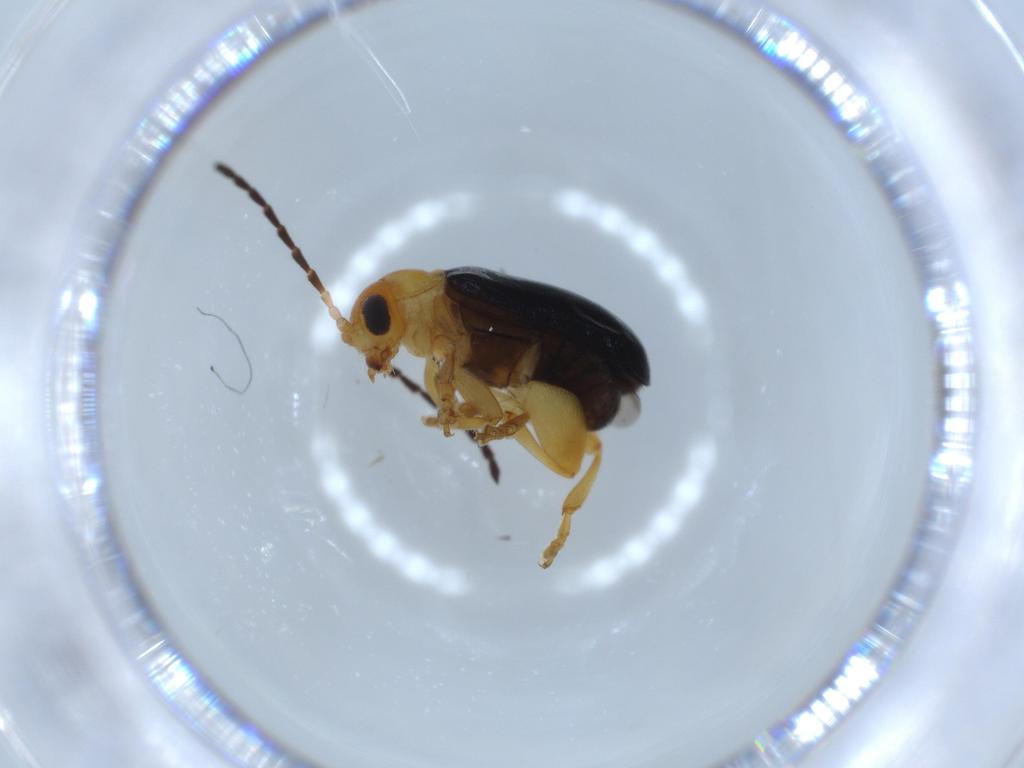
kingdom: Animalia
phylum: Arthropoda
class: Insecta
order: Coleoptera
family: Chrysomelidae
